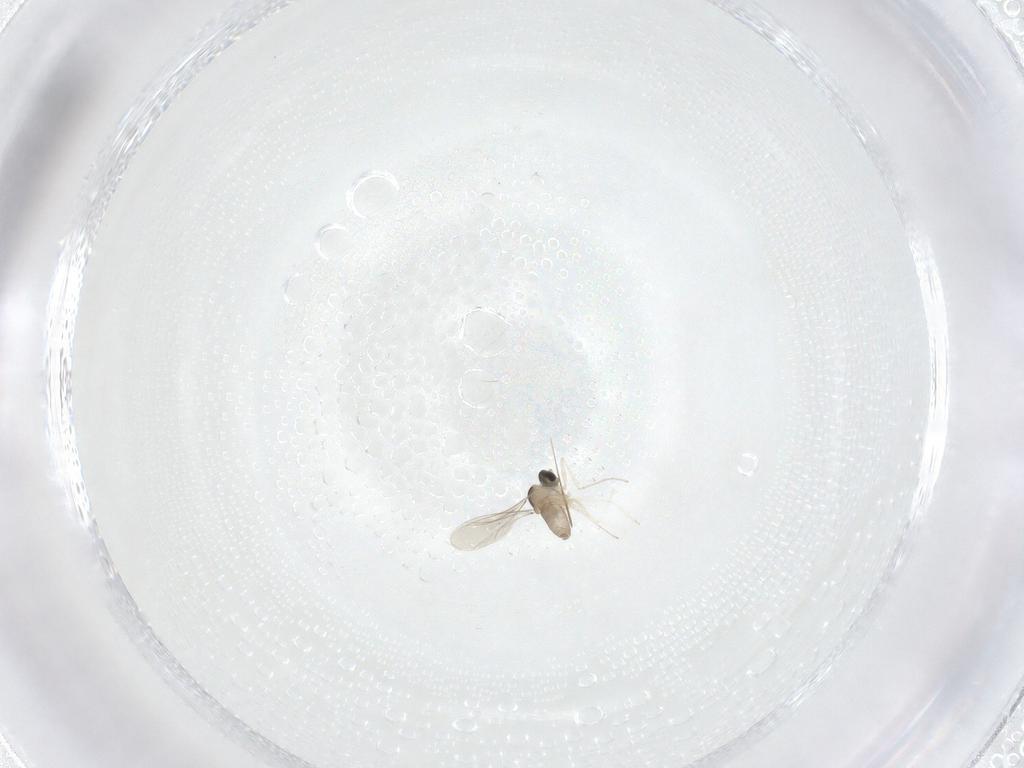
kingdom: Animalia
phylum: Arthropoda
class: Insecta
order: Diptera
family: Cecidomyiidae
